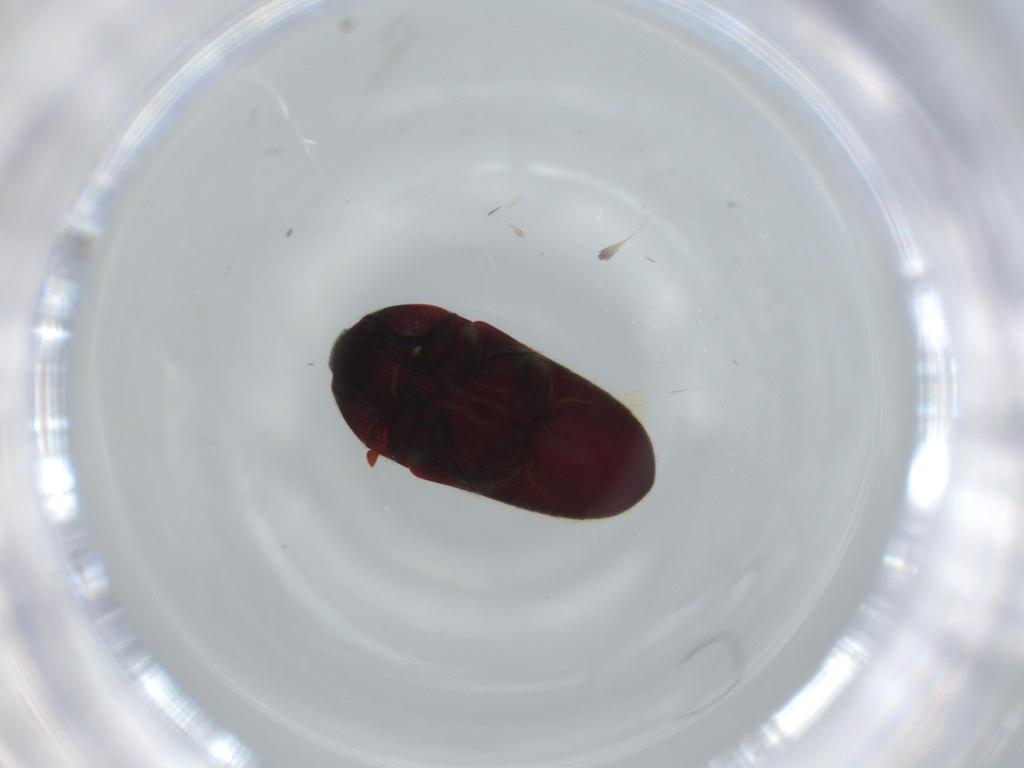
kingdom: Animalia
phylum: Arthropoda
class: Insecta
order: Coleoptera
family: Throscidae
